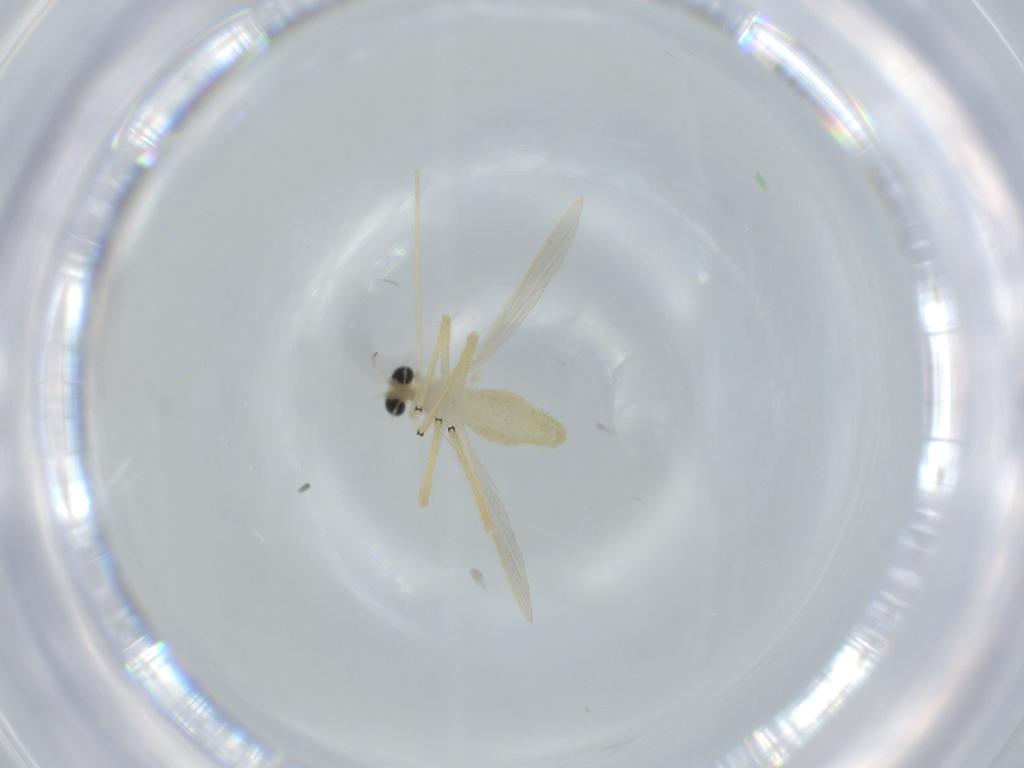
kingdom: Animalia
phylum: Arthropoda
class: Insecta
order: Diptera
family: Chironomidae
